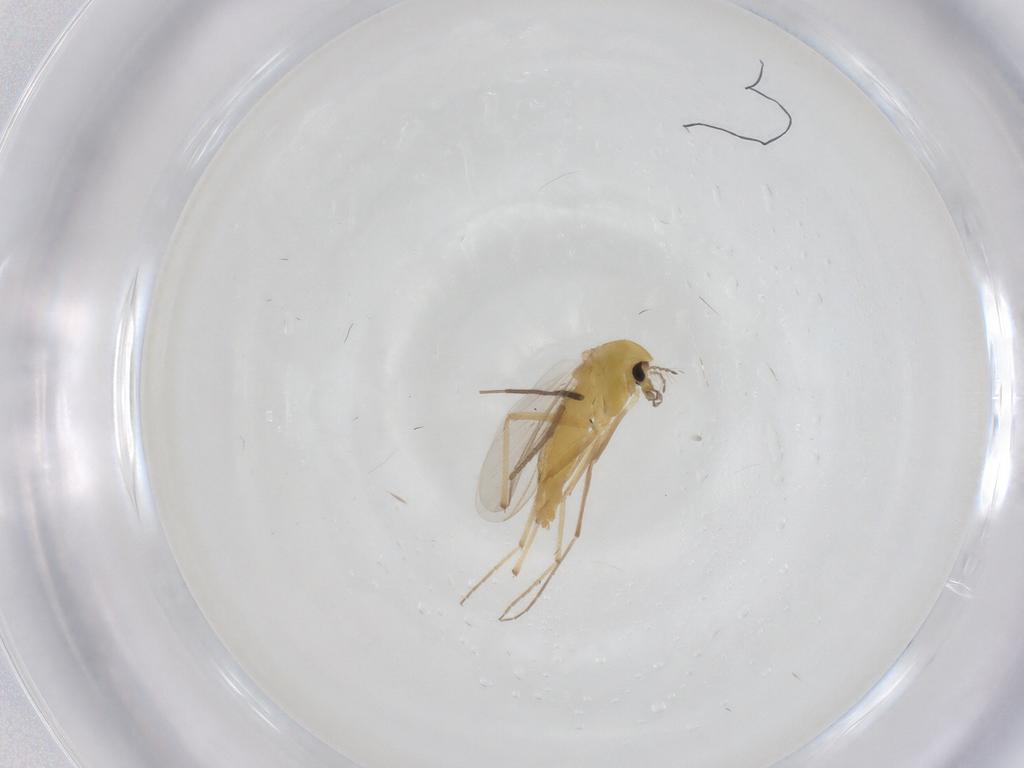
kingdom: Animalia
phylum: Arthropoda
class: Insecta
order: Diptera
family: Chironomidae
